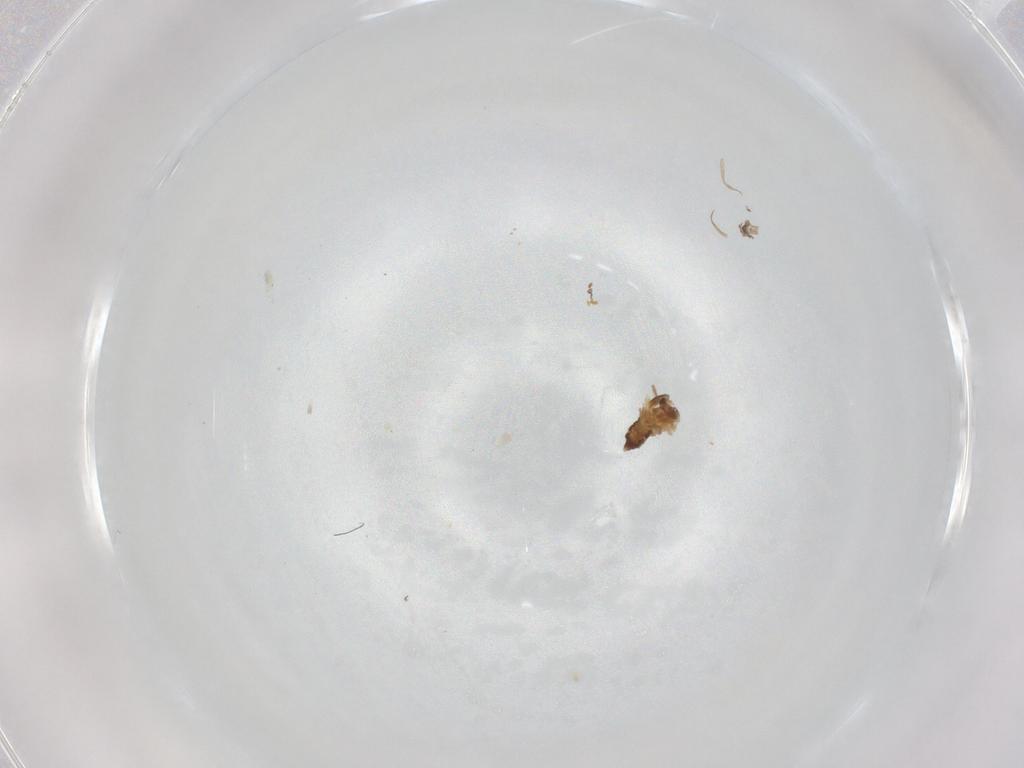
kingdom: Animalia
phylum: Arthropoda
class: Insecta
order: Diptera
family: Cecidomyiidae
